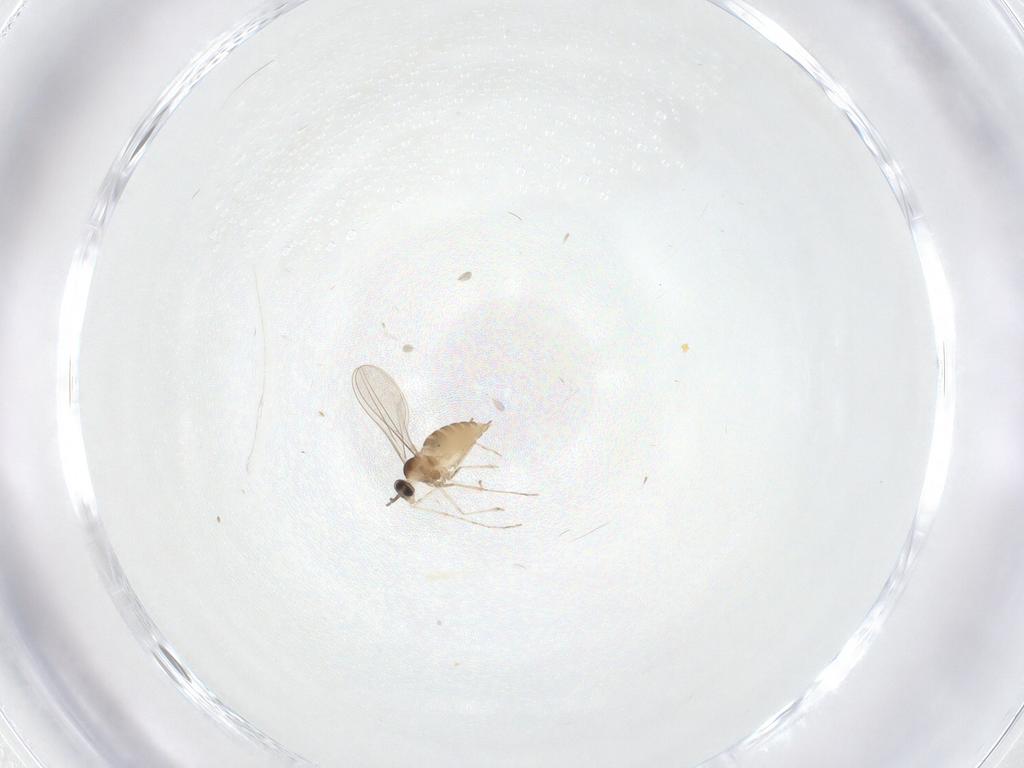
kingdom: Animalia
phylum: Arthropoda
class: Insecta
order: Diptera
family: Cecidomyiidae
